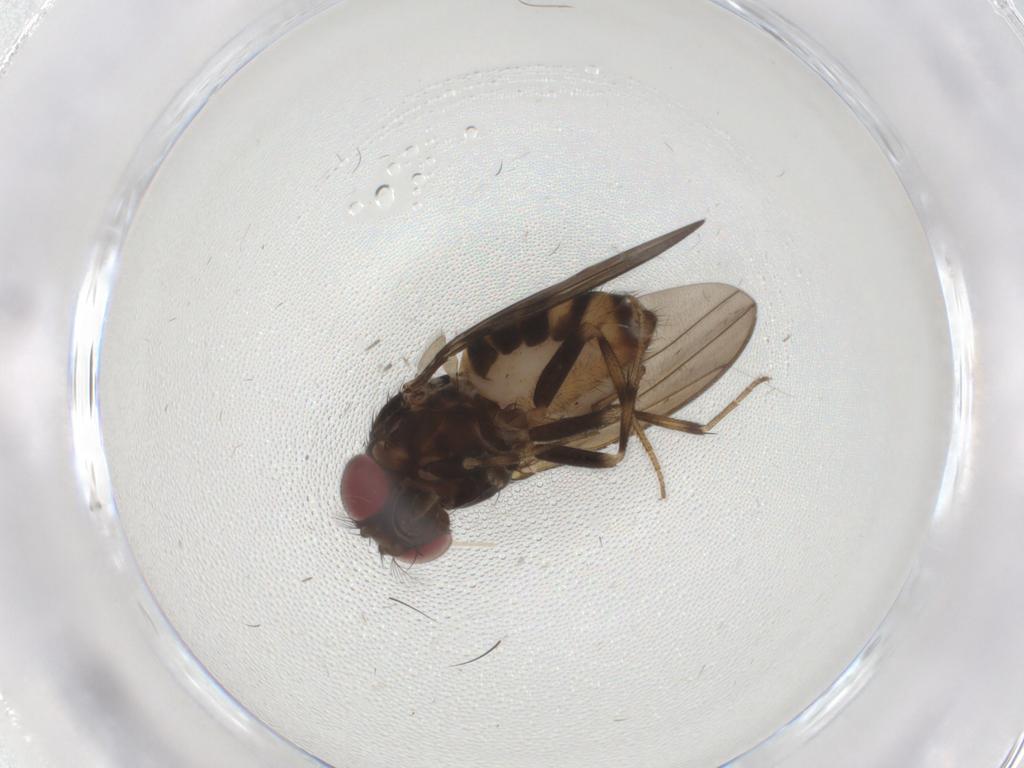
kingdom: Animalia
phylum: Arthropoda
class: Insecta
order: Diptera
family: Drosophilidae
